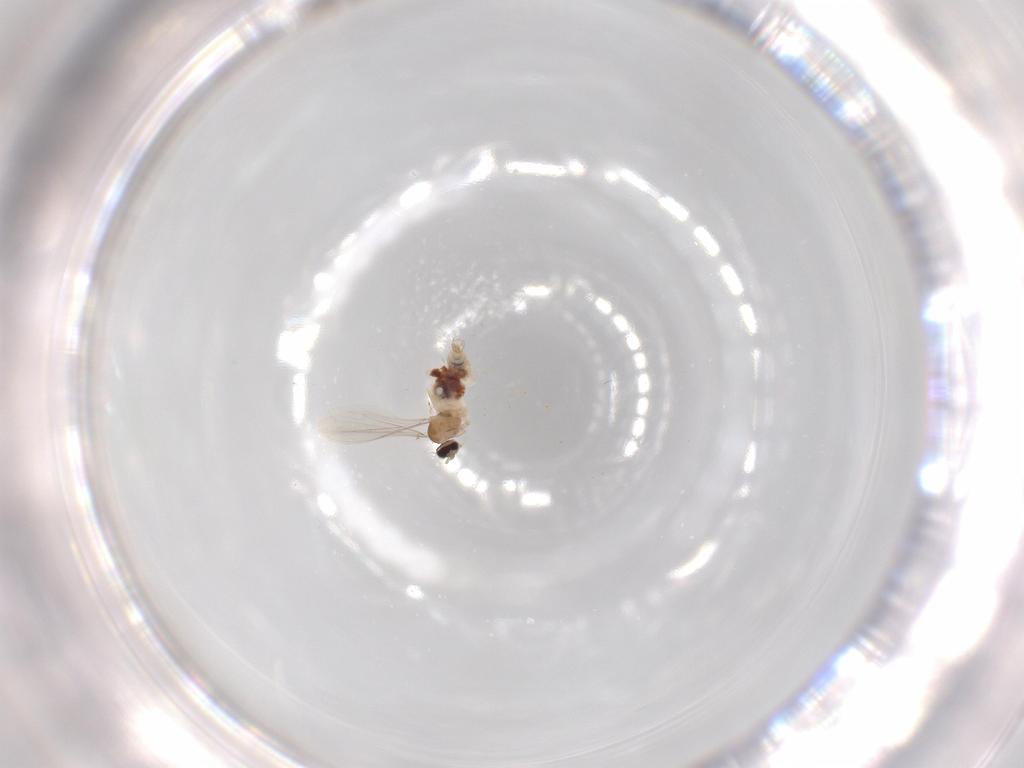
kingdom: Animalia
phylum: Arthropoda
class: Insecta
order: Diptera
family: Cecidomyiidae
